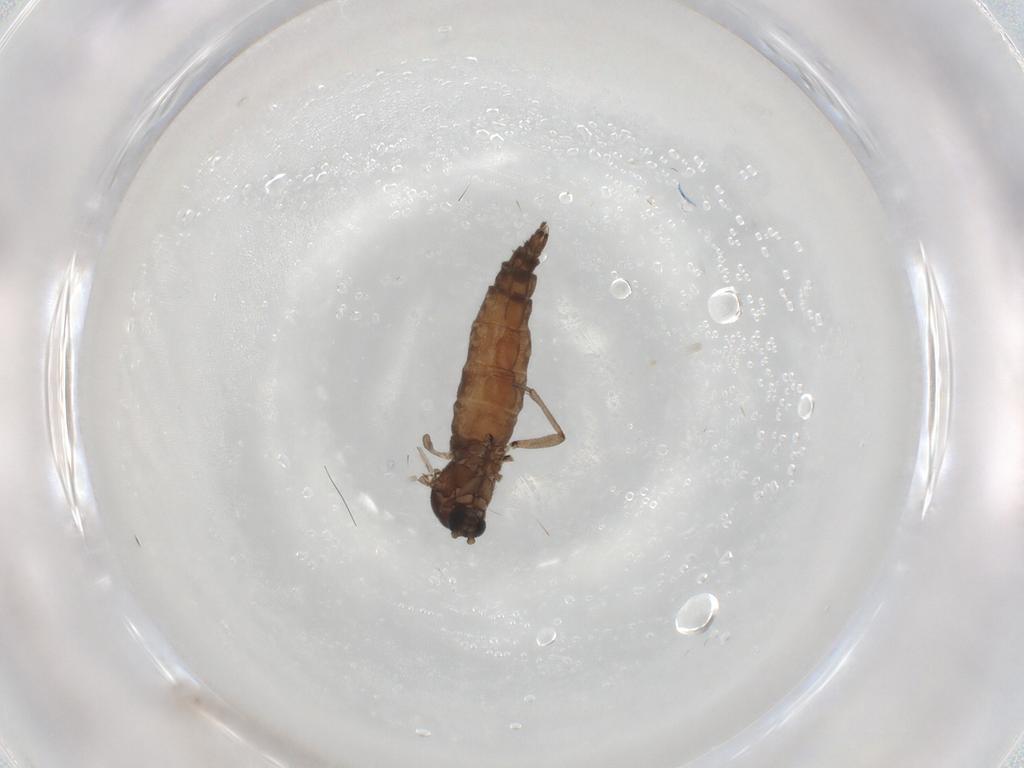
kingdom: Animalia
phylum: Arthropoda
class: Insecta
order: Diptera
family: Sciaridae
